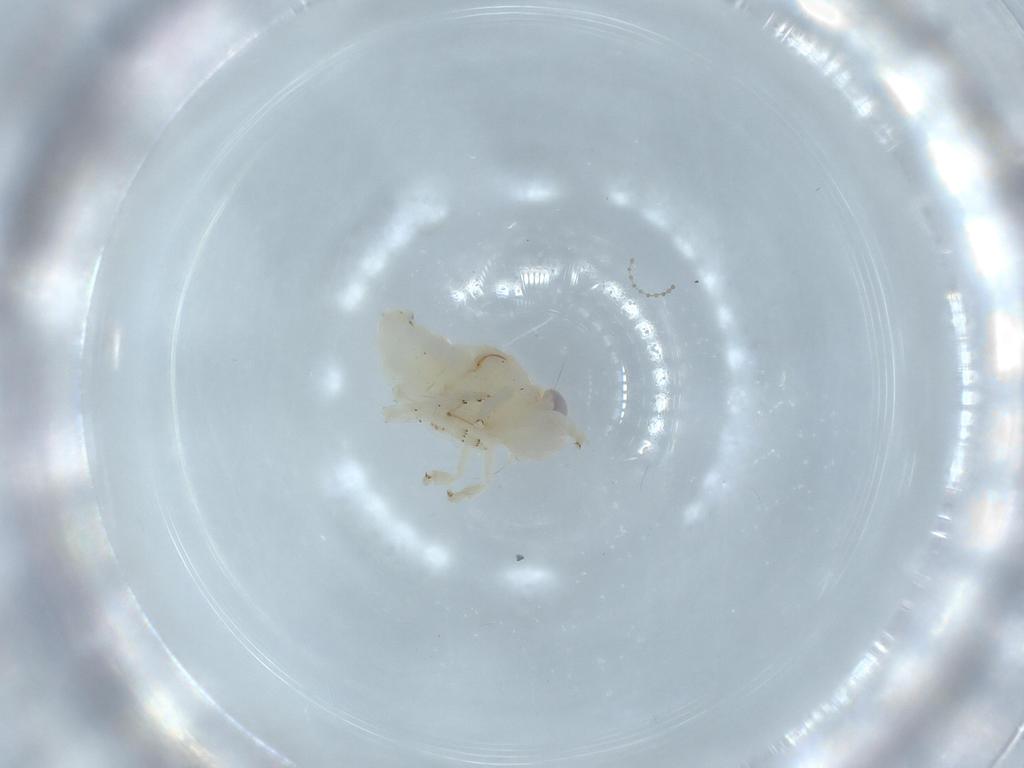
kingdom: Animalia
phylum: Arthropoda
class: Insecta
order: Hemiptera
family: Nogodinidae
